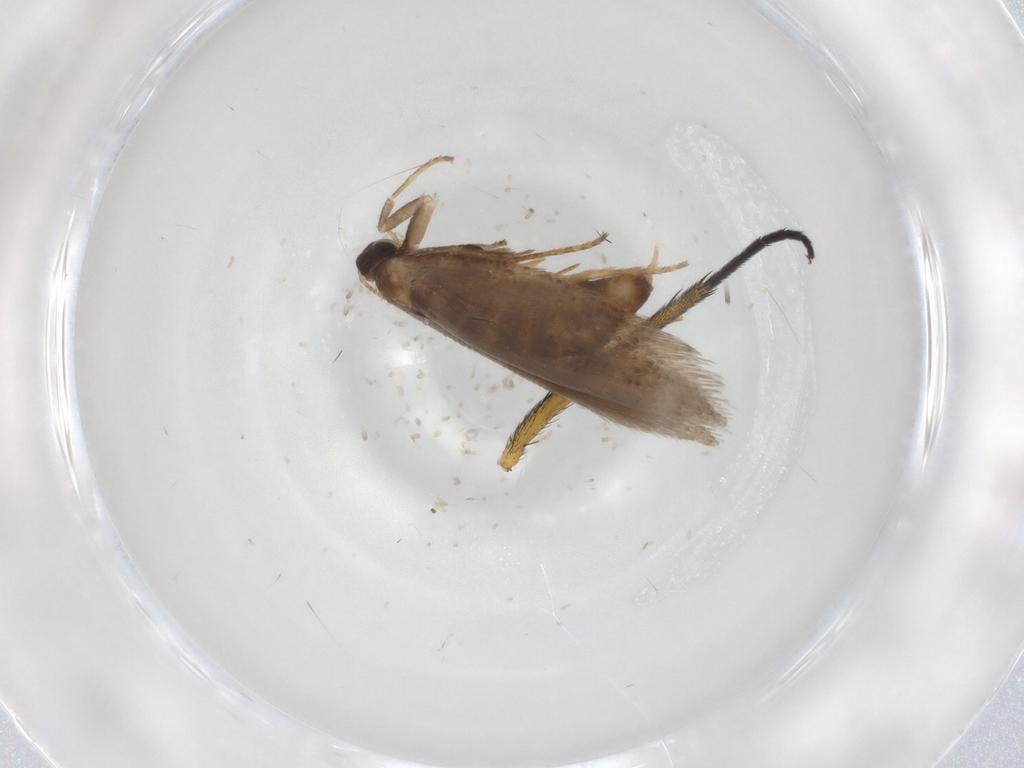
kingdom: Animalia
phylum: Arthropoda
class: Insecta
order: Lepidoptera
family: Nepticulidae
